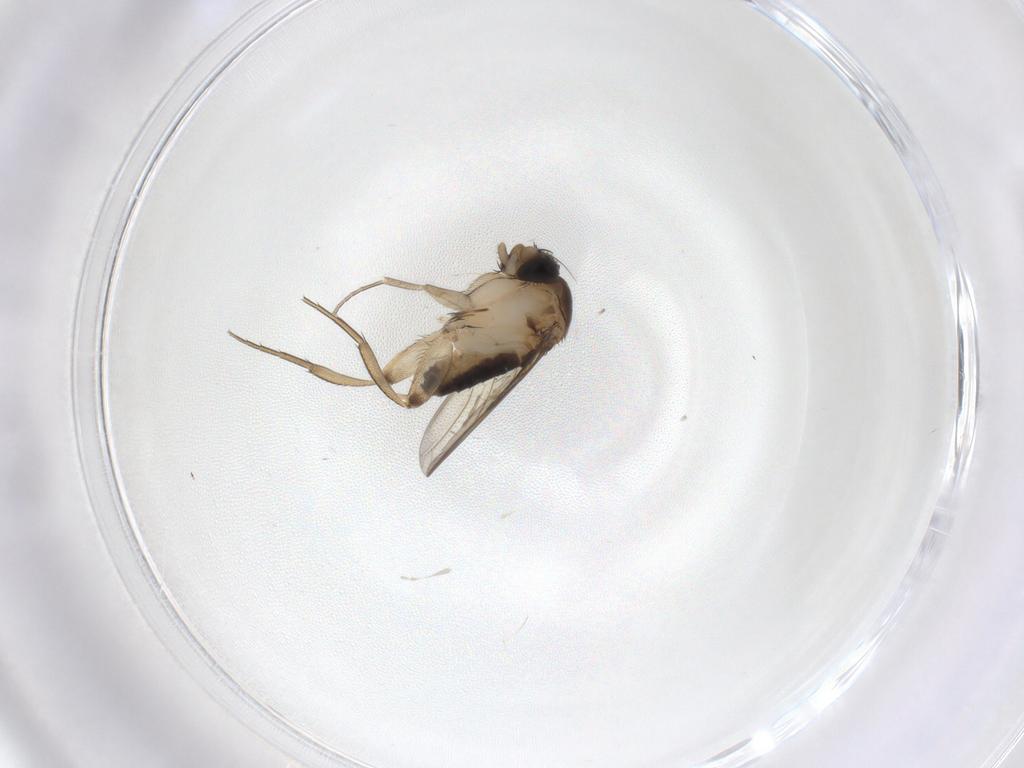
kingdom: Animalia
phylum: Arthropoda
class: Insecta
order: Diptera
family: Phoridae
